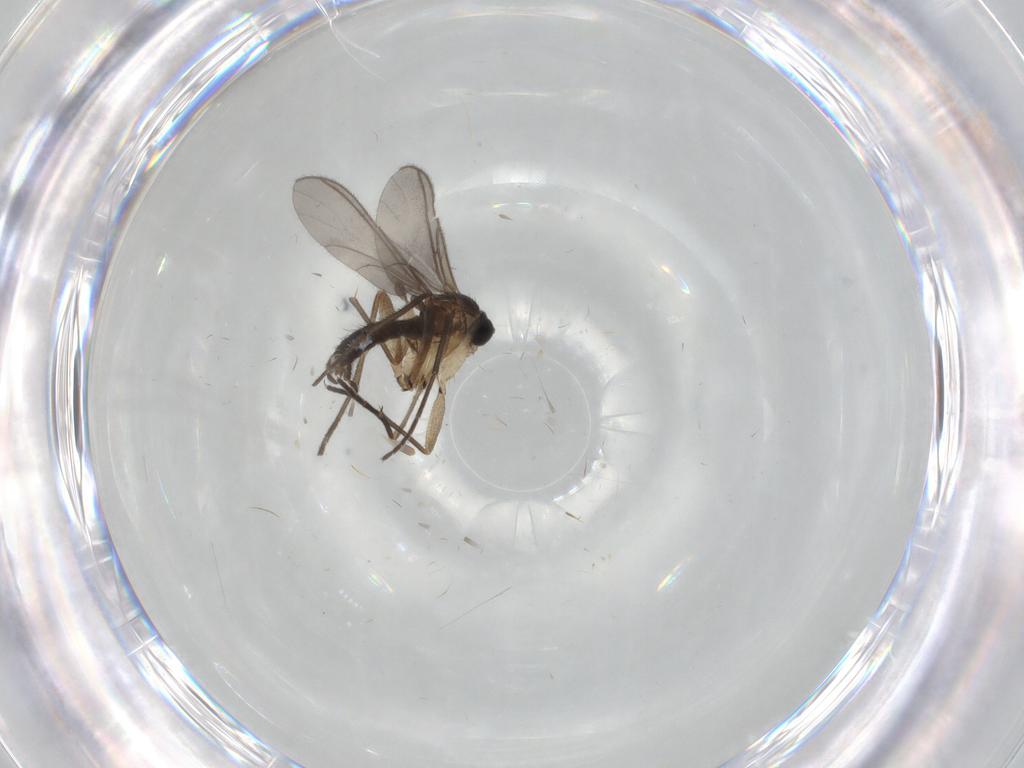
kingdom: Animalia
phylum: Arthropoda
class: Insecta
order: Diptera
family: Sciaridae
